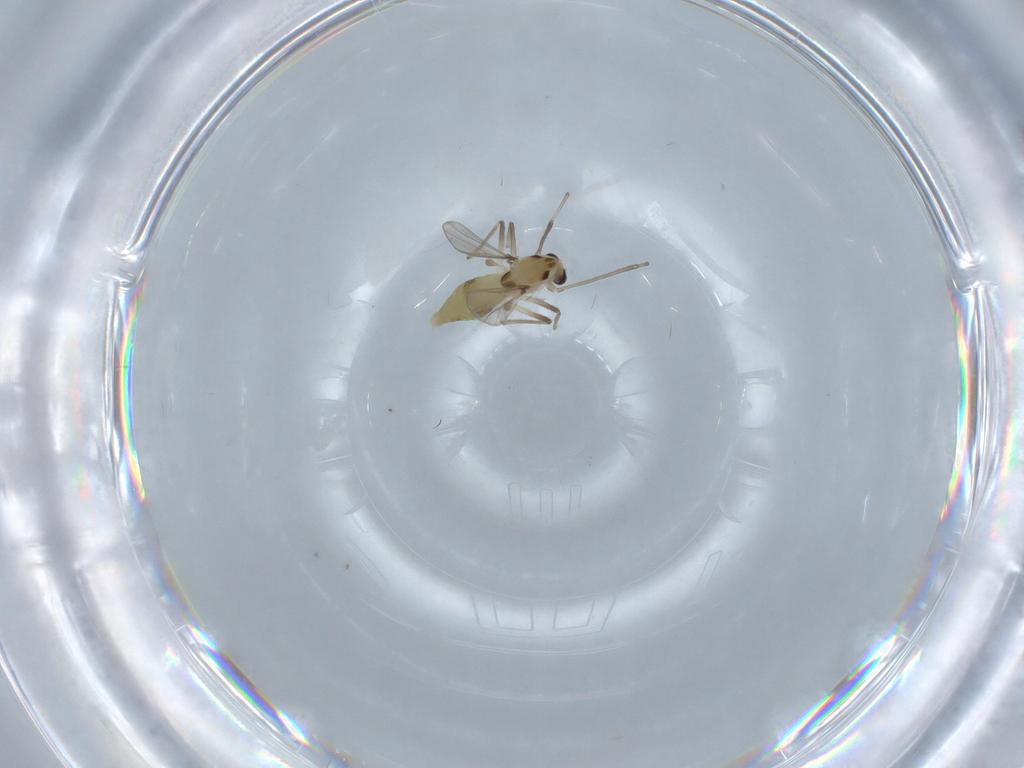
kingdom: Animalia
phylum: Arthropoda
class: Insecta
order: Diptera
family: Chironomidae
